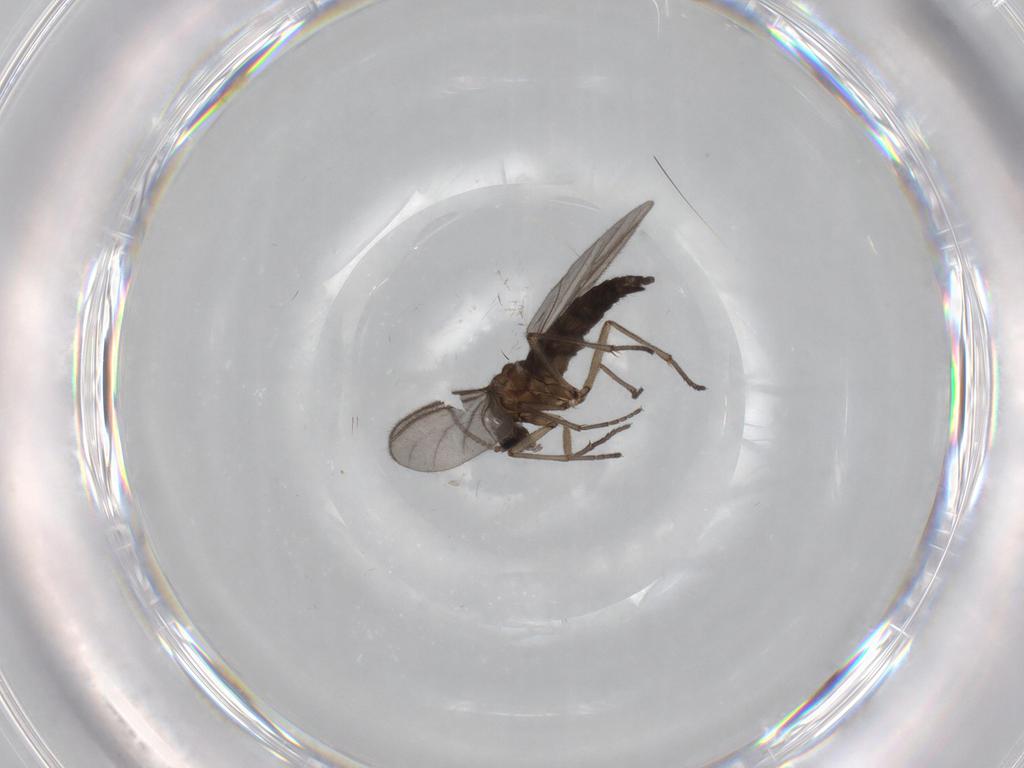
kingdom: Animalia
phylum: Arthropoda
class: Insecta
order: Diptera
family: Sciaridae
